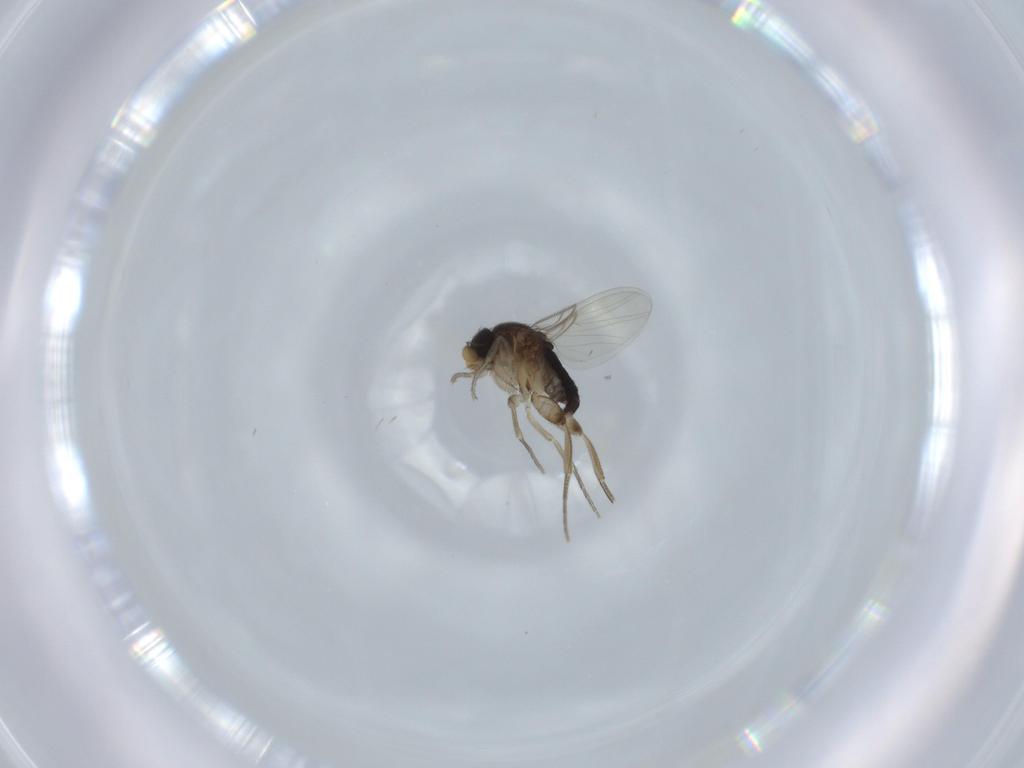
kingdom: Animalia
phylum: Arthropoda
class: Insecta
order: Diptera
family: Phoridae
